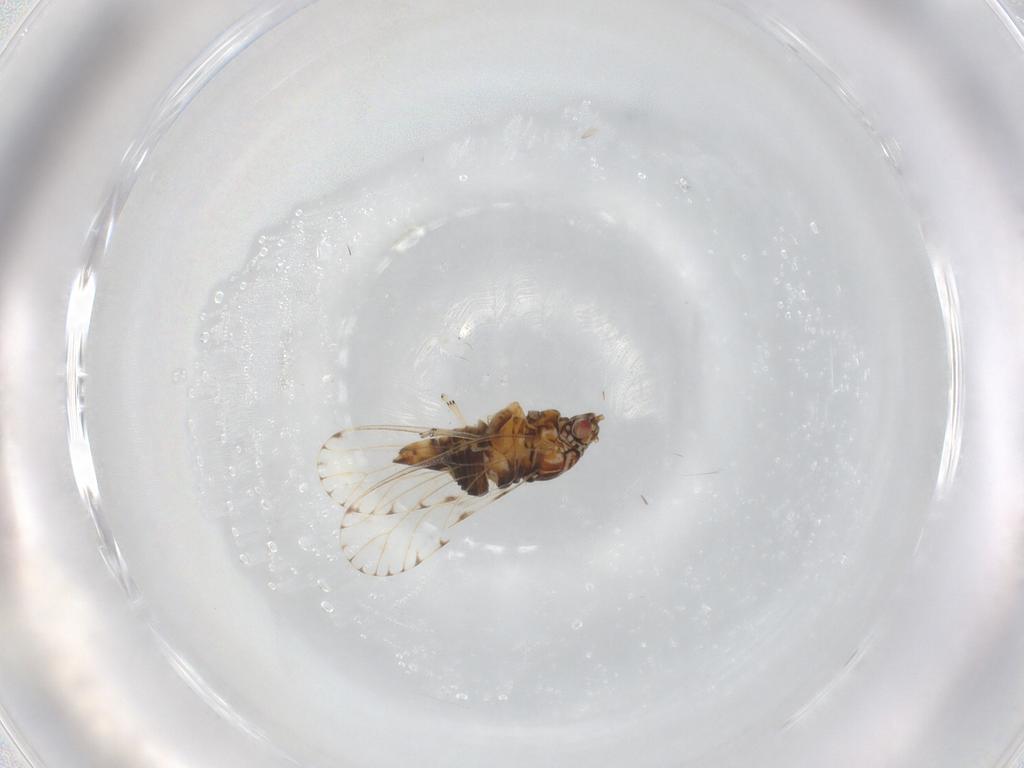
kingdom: Animalia
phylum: Arthropoda
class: Insecta
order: Hemiptera
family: Psyllidae
